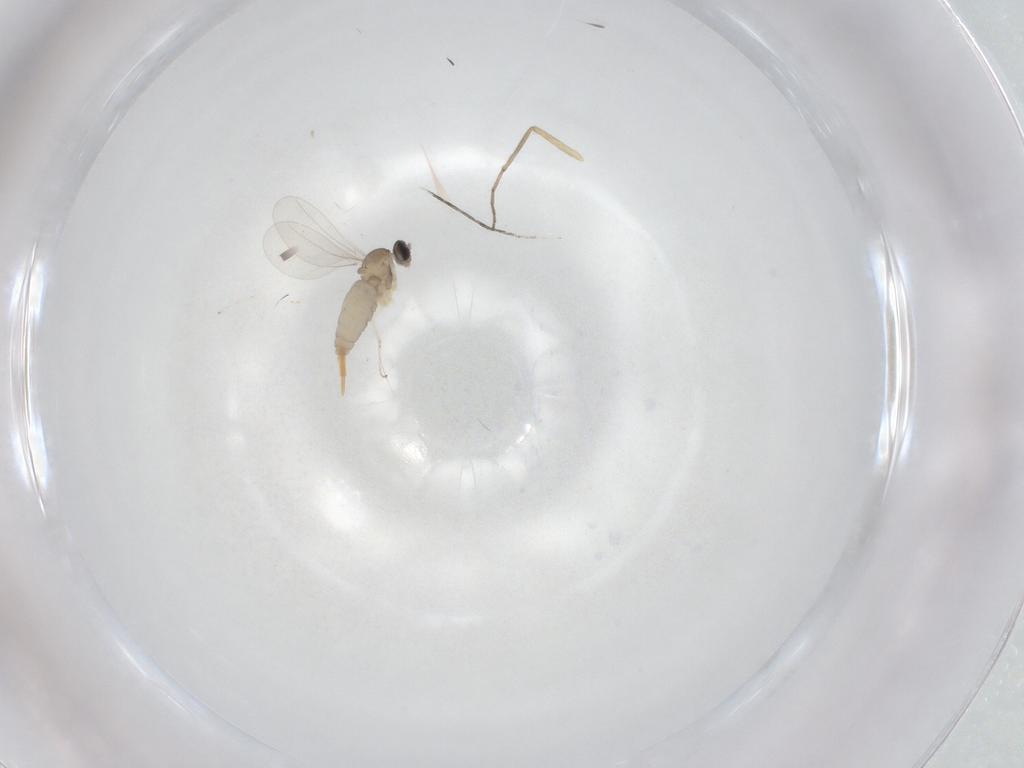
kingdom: Animalia
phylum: Arthropoda
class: Insecta
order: Diptera
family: Cecidomyiidae
